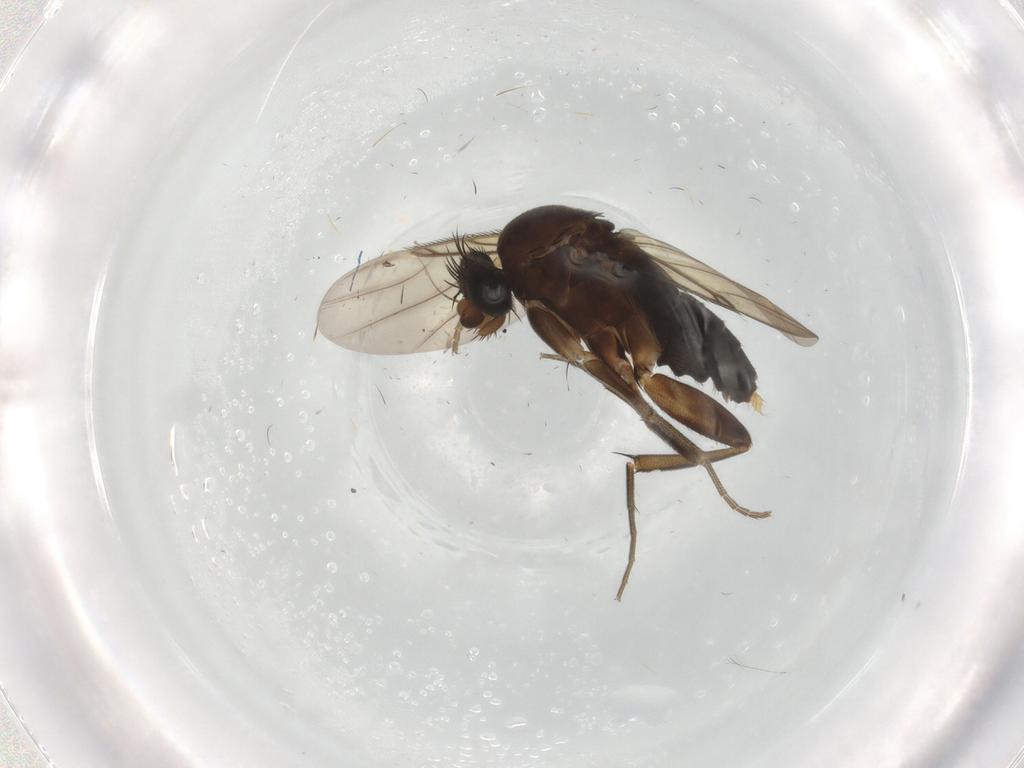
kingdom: Animalia
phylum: Arthropoda
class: Insecta
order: Diptera
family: Phoridae
